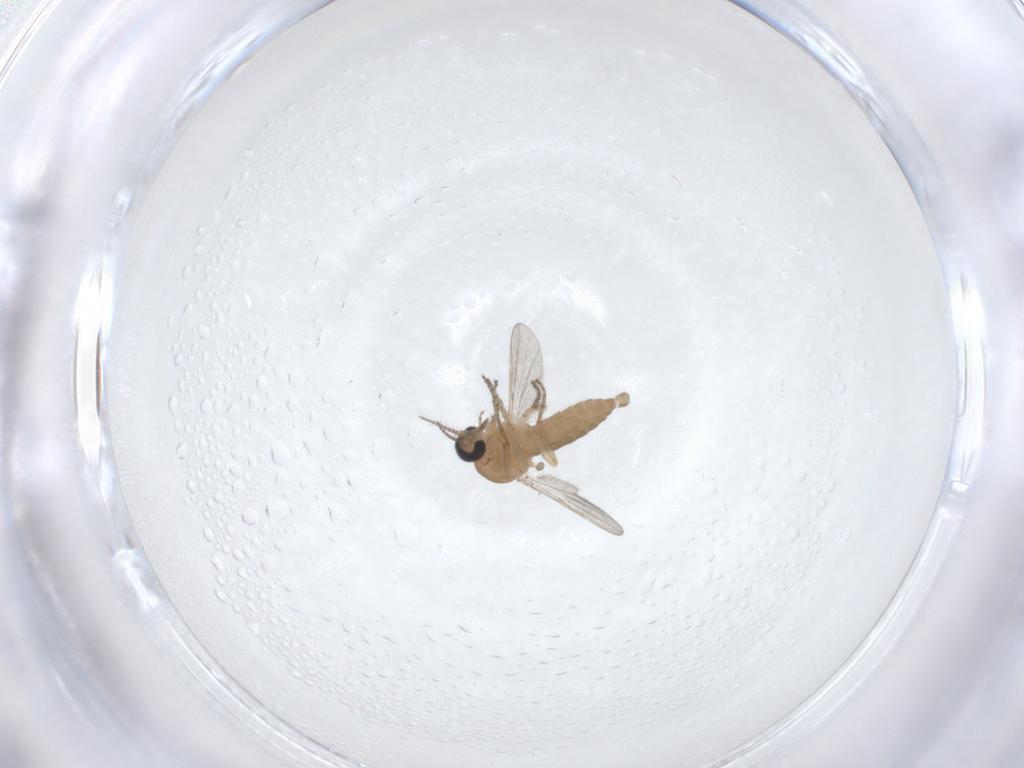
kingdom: Animalia
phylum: Arthropoda
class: Insecta
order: Diptera
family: Ceratopogonidae
